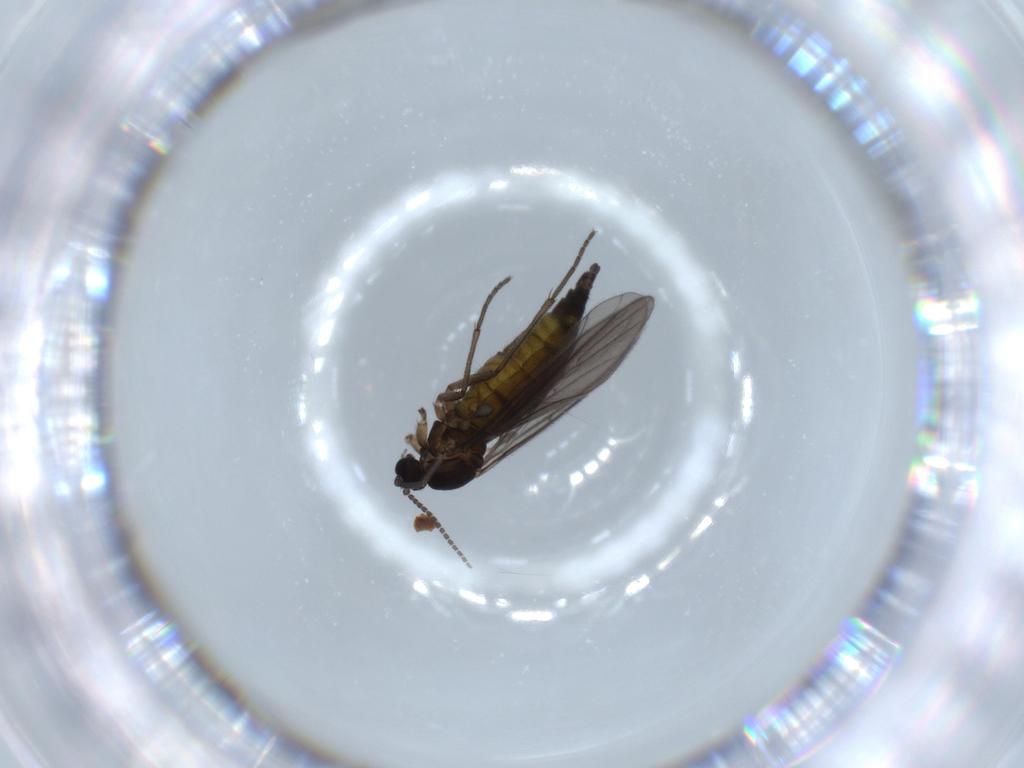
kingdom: Animalia
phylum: Arthropoda
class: Insecta
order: Diptera
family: Sciaridae
